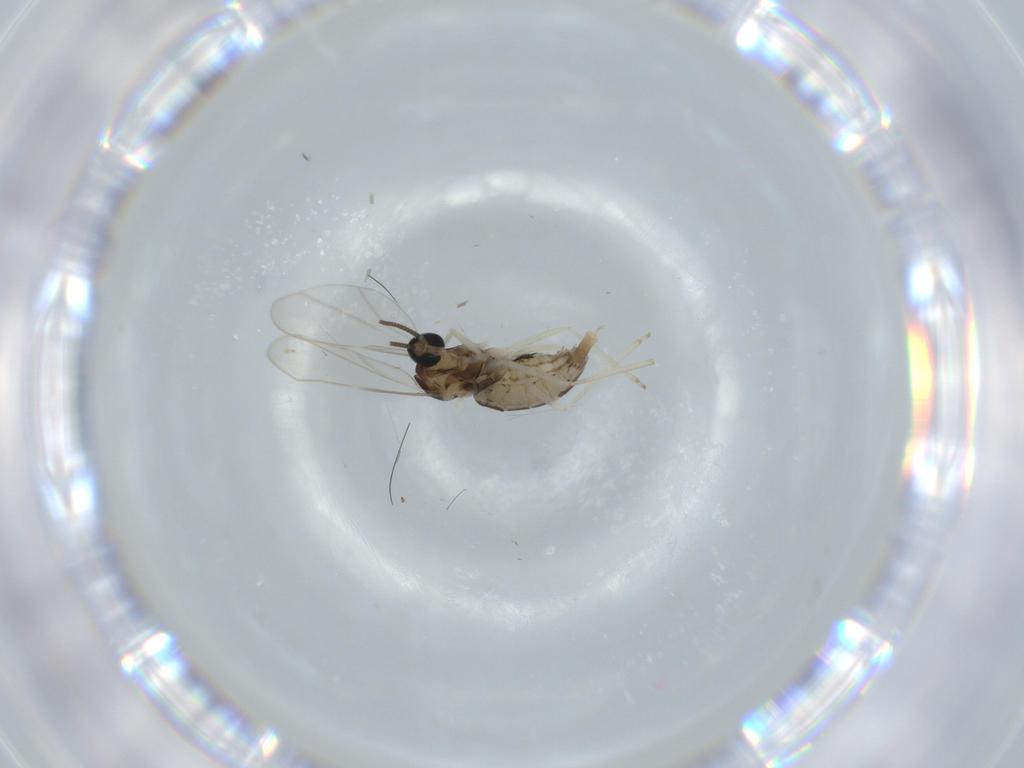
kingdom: Animalia
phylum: Arthropoda
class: Insecta
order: Diptera
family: Cecidomyiidae
